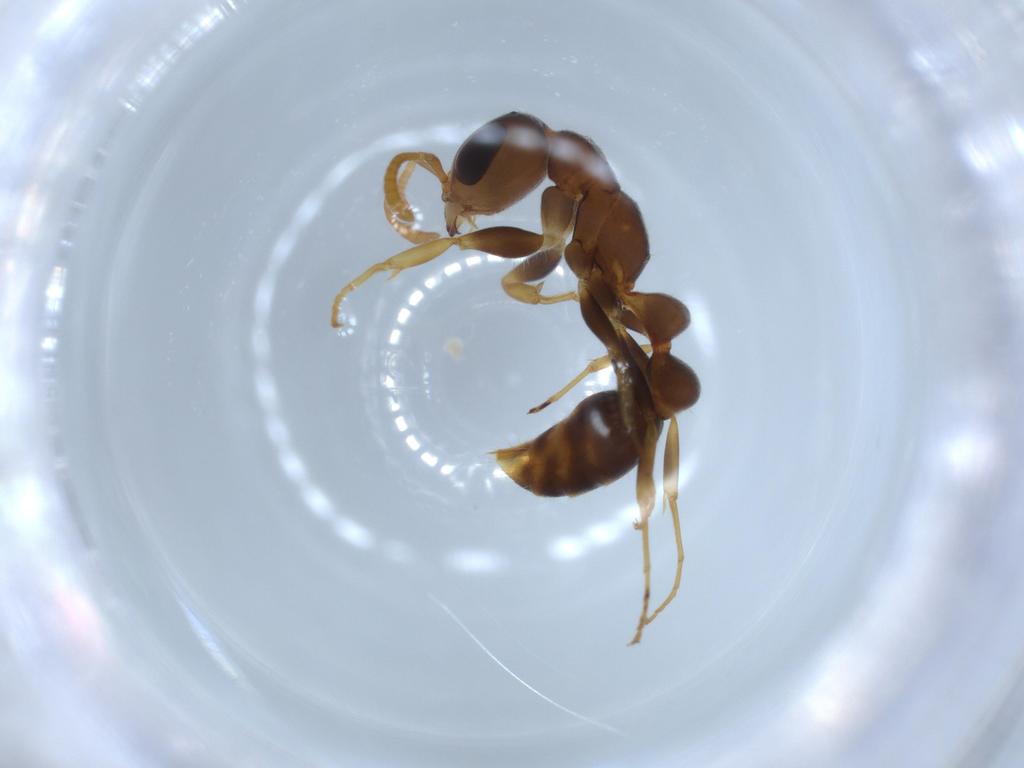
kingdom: Animalia
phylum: Arthropoda
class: Insecta
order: Hymenoptera
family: Formicidae
